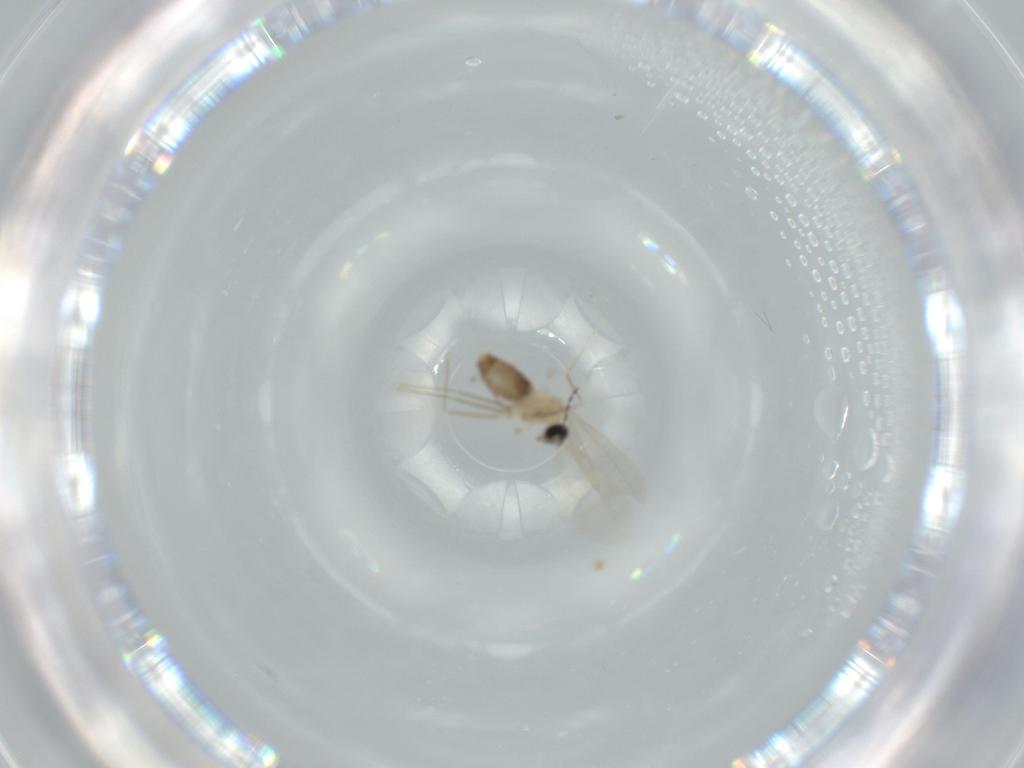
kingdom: Animalia
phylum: Arthropoda
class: Insecta
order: Diptera
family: Cecidomyiidae
